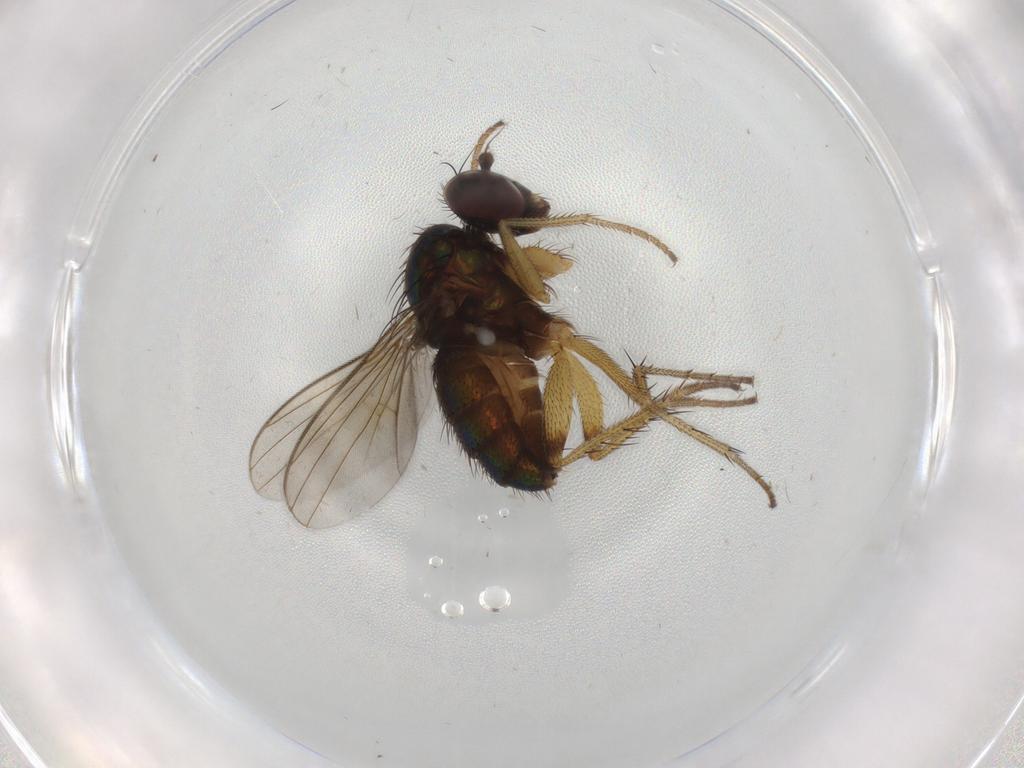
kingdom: Animalia
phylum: Arthropoda
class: Insecta
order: Diptera
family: Dolichopodidae
